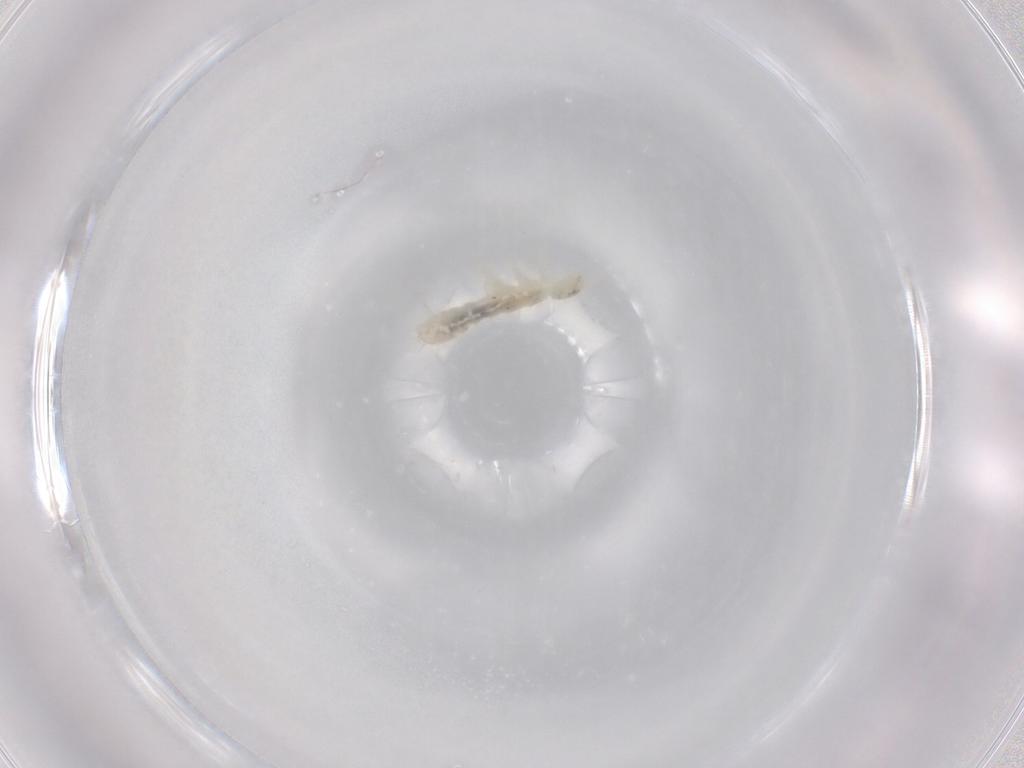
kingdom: Animalia
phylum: Arthropoda
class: Collembola
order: Entomobryomorpha
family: Isotomidae
